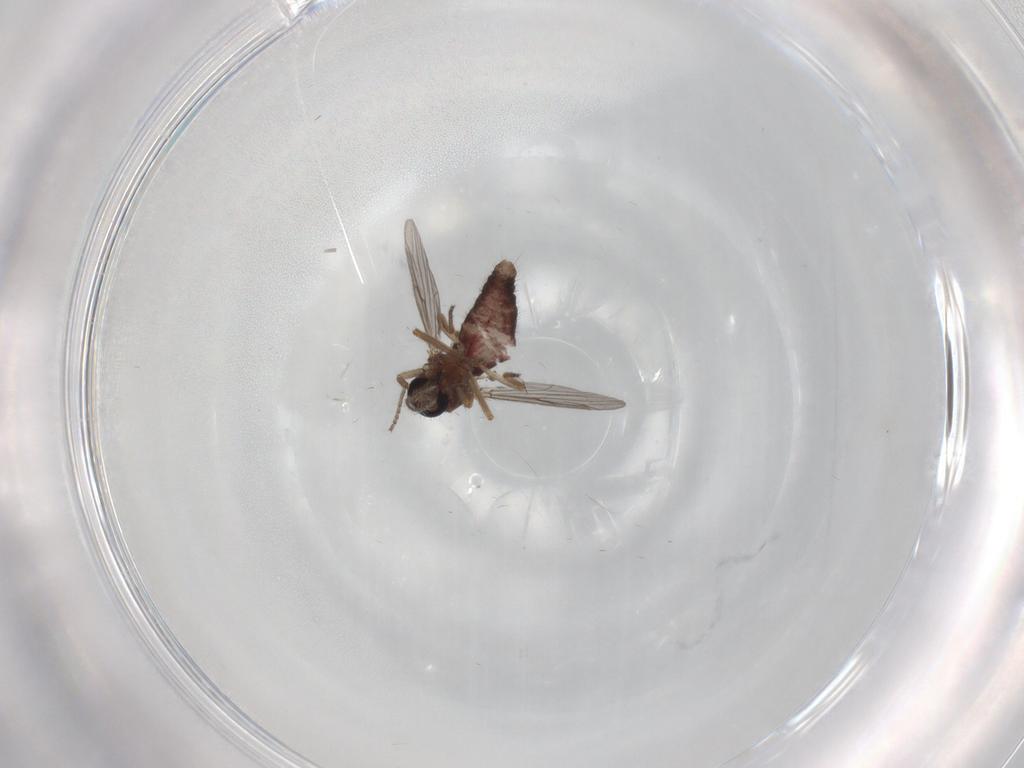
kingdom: Animalia
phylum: Arthropoda
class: Insecta
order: Diptera
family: Ceratopogonidae
